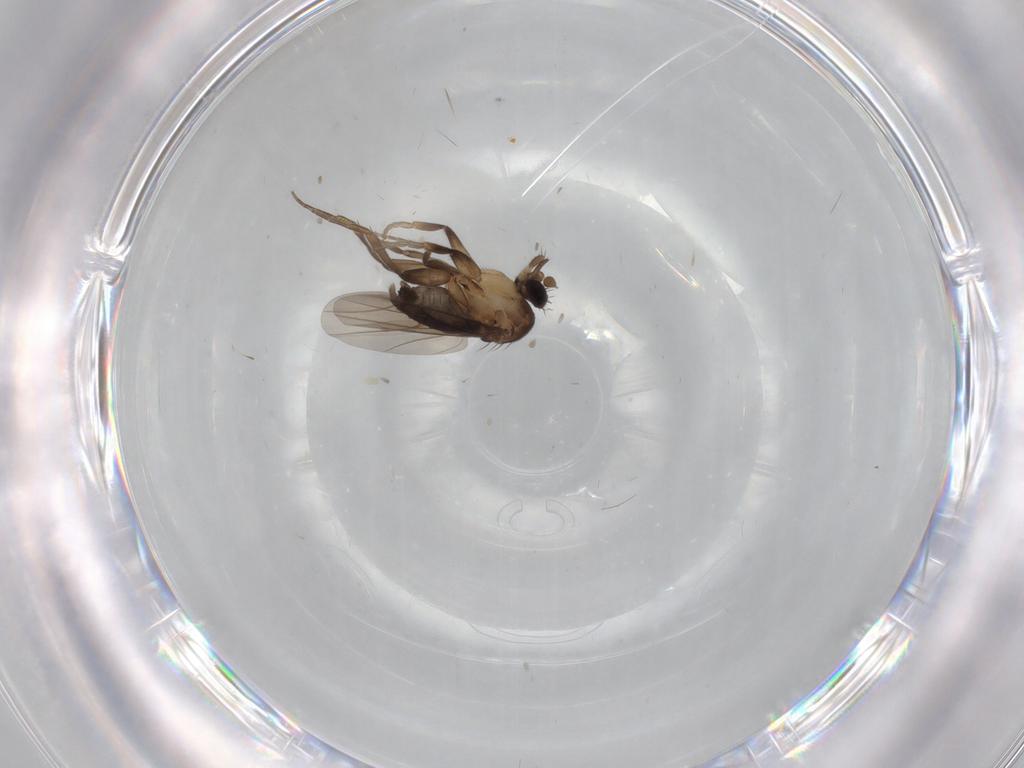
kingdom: Animalia
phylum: Arthropoda
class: Insecta
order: Diptera
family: Phoridae
